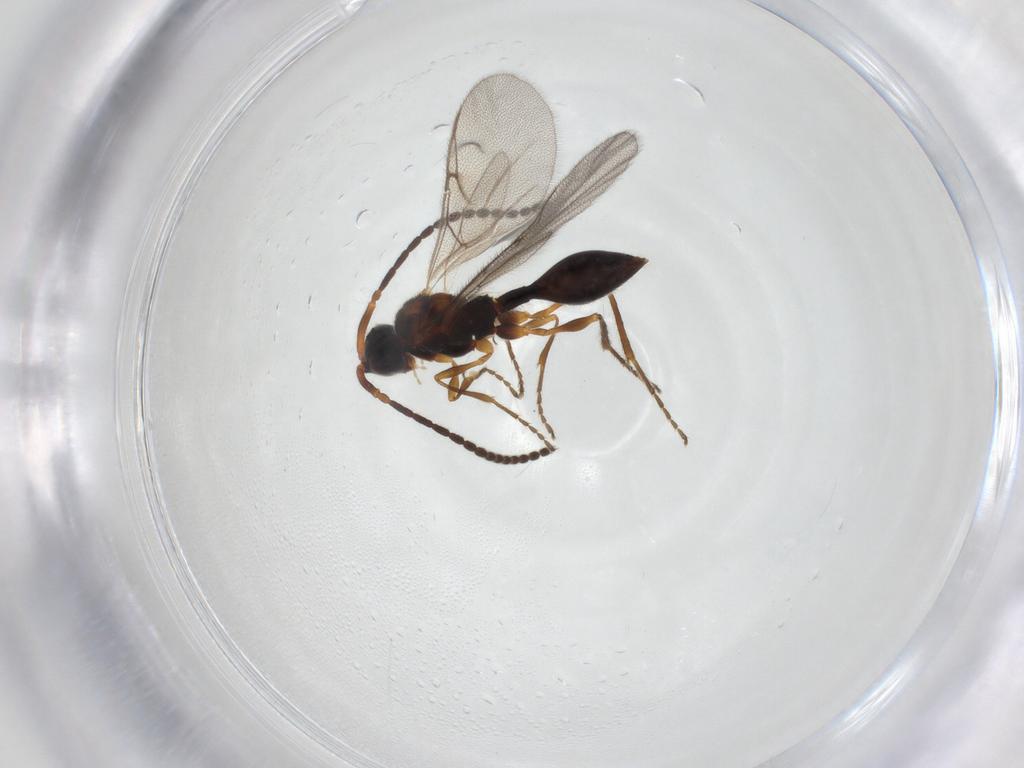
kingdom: Animalia
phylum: Arthropoda
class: Insecta
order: Hymenoptera
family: Diapriidae
